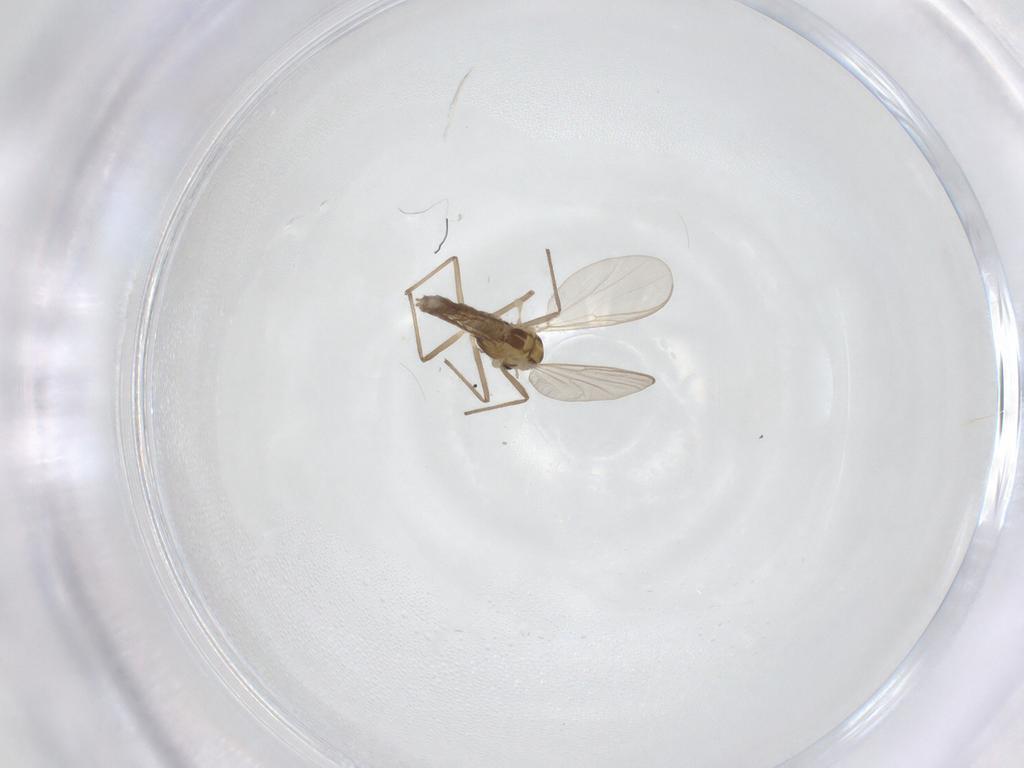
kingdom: Animalia
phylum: Arthropoda
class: Insecta
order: Diptera
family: Chironomidae
